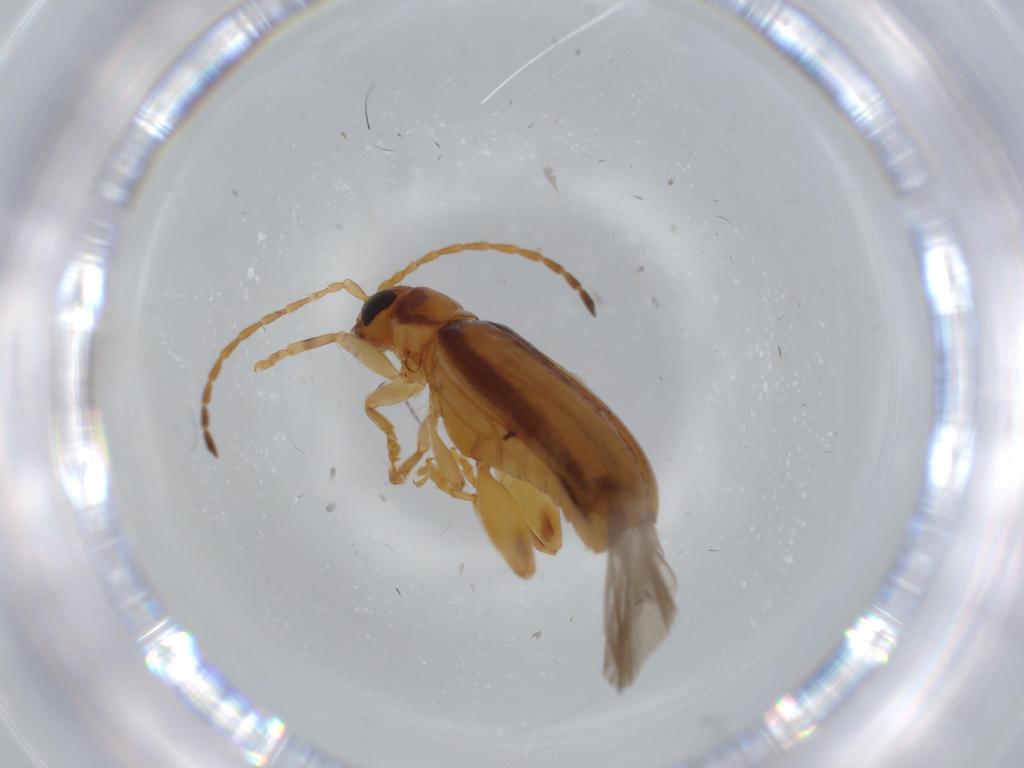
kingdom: Animalia
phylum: Arthropoda
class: Insecta
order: Coleoptera
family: Chrysomelidae
